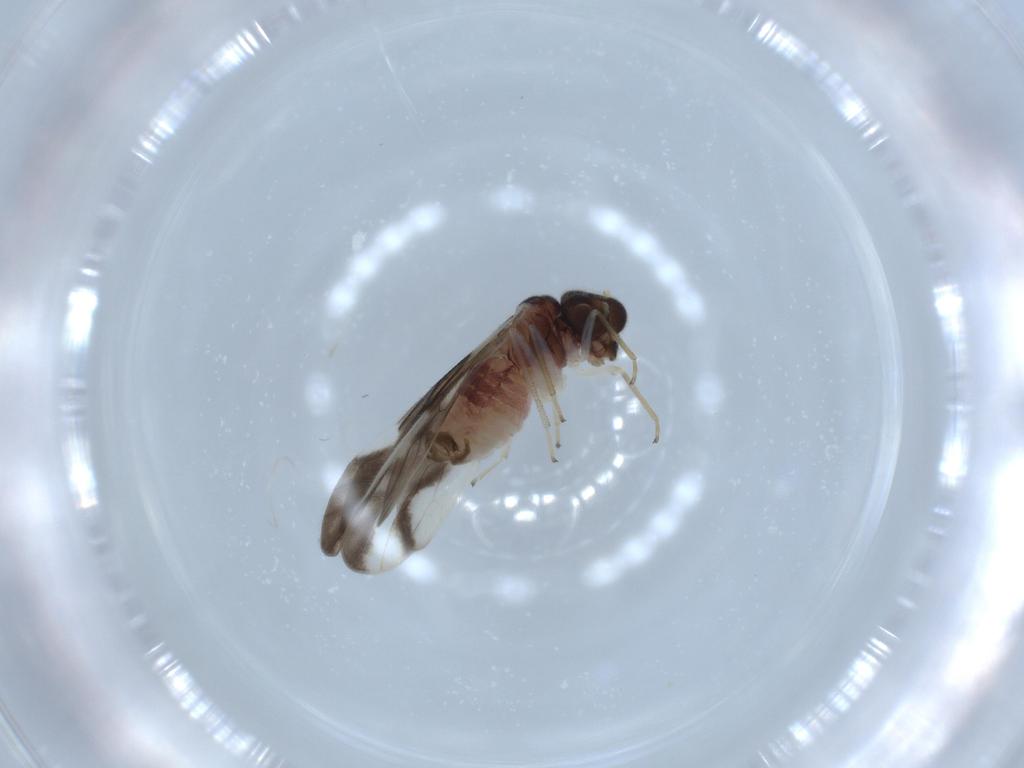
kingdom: Animalia
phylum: Arthropoda
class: Insecta
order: Psocodea
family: Caeciliusidae
